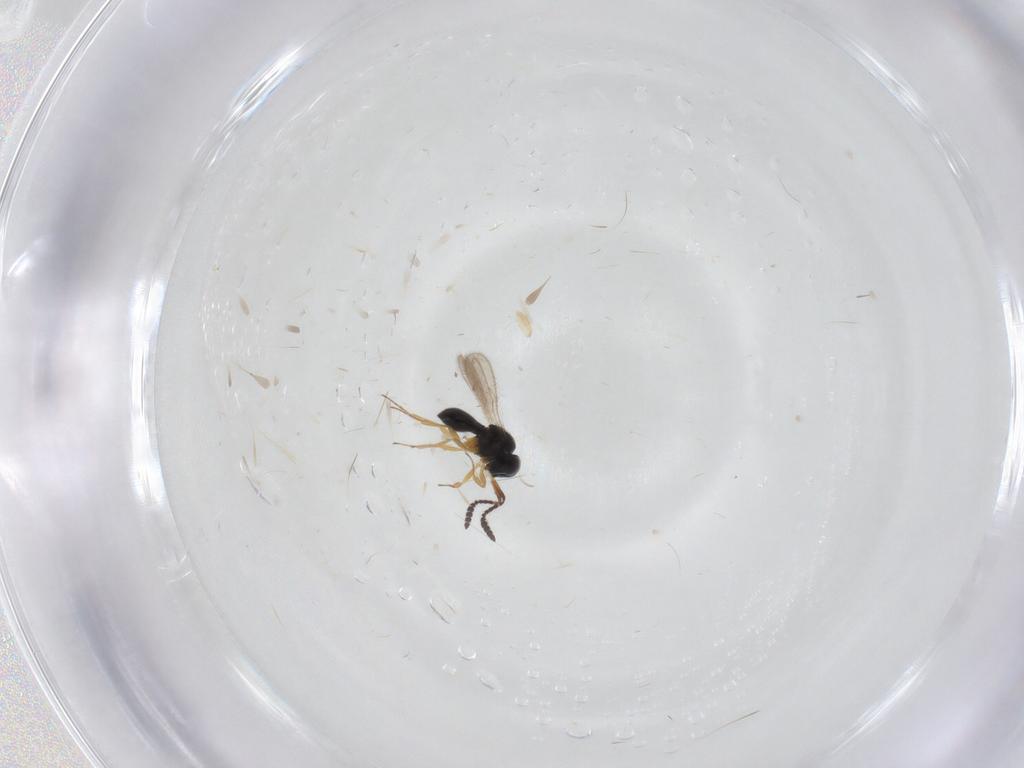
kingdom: Animalia
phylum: Arthropoda
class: Insecta
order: Hymenoptera
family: Scelionidae
